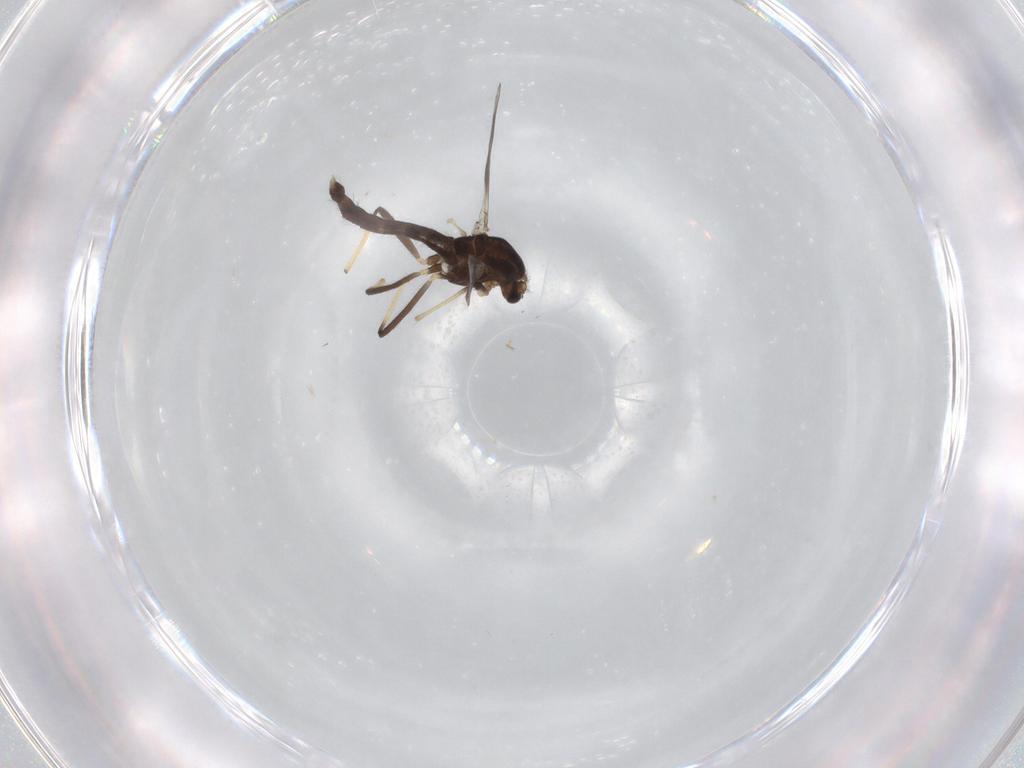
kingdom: Animalia
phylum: Arthropoda
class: Insecta
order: Diptera
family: Chironomidae
